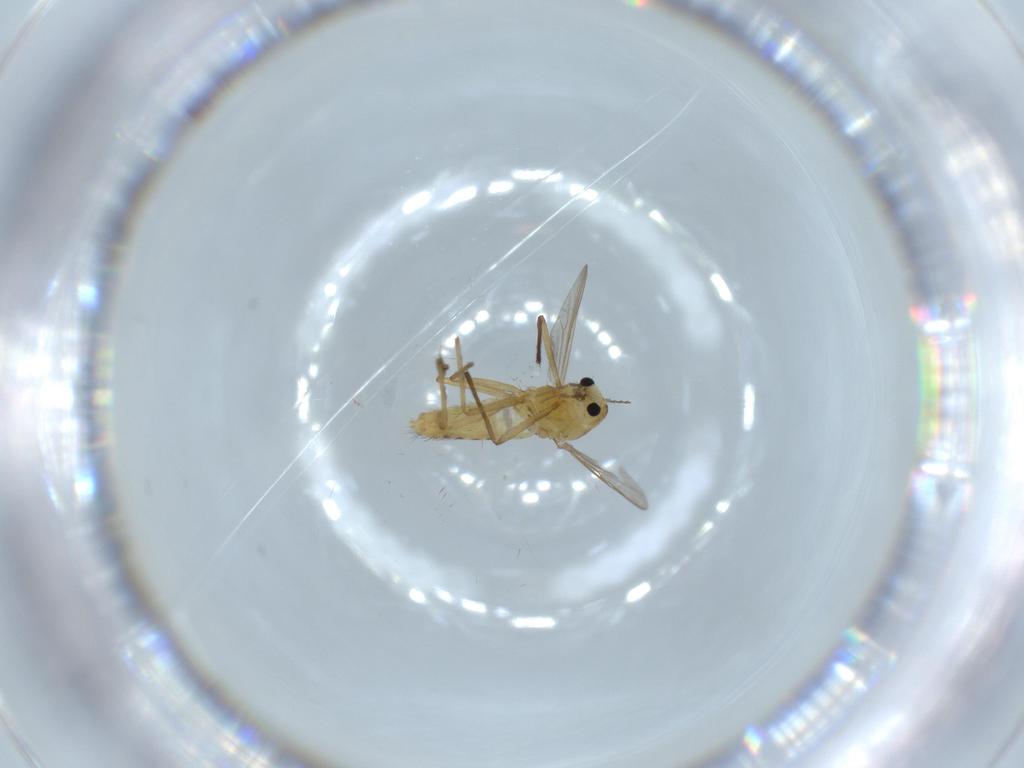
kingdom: Animalia
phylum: Arthropoda
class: Insecta
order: Diptera
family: Chironomidae
